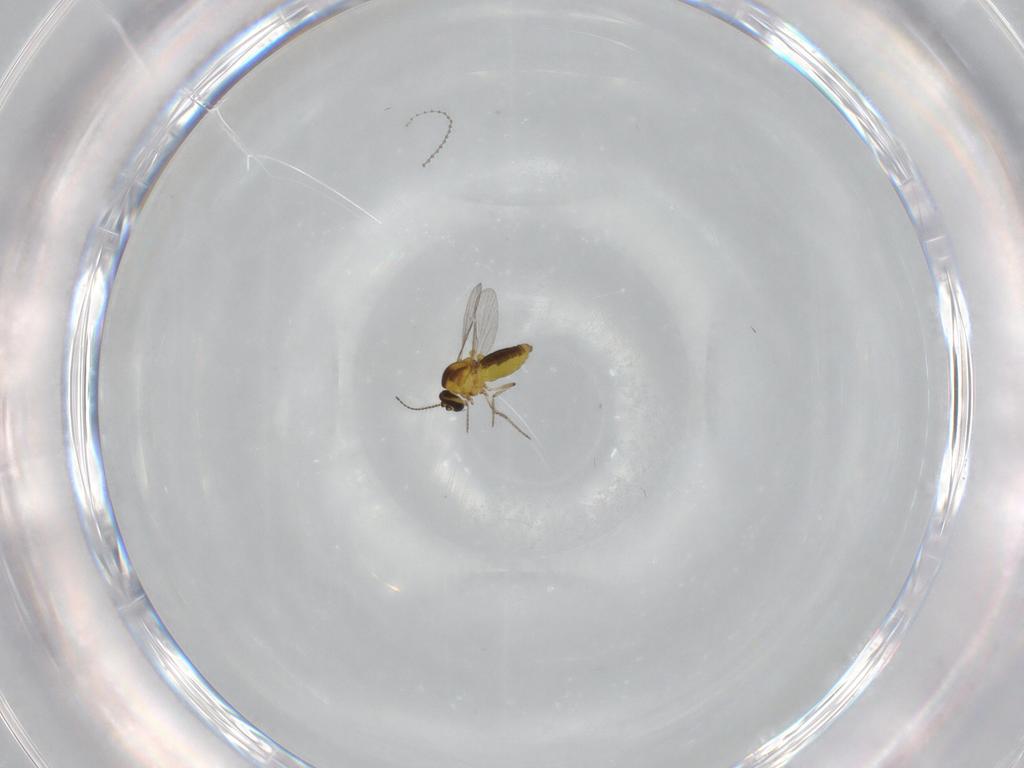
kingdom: Animalia
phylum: Arthropoda
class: Insecta
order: Diptera
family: Ceratopogonidae
